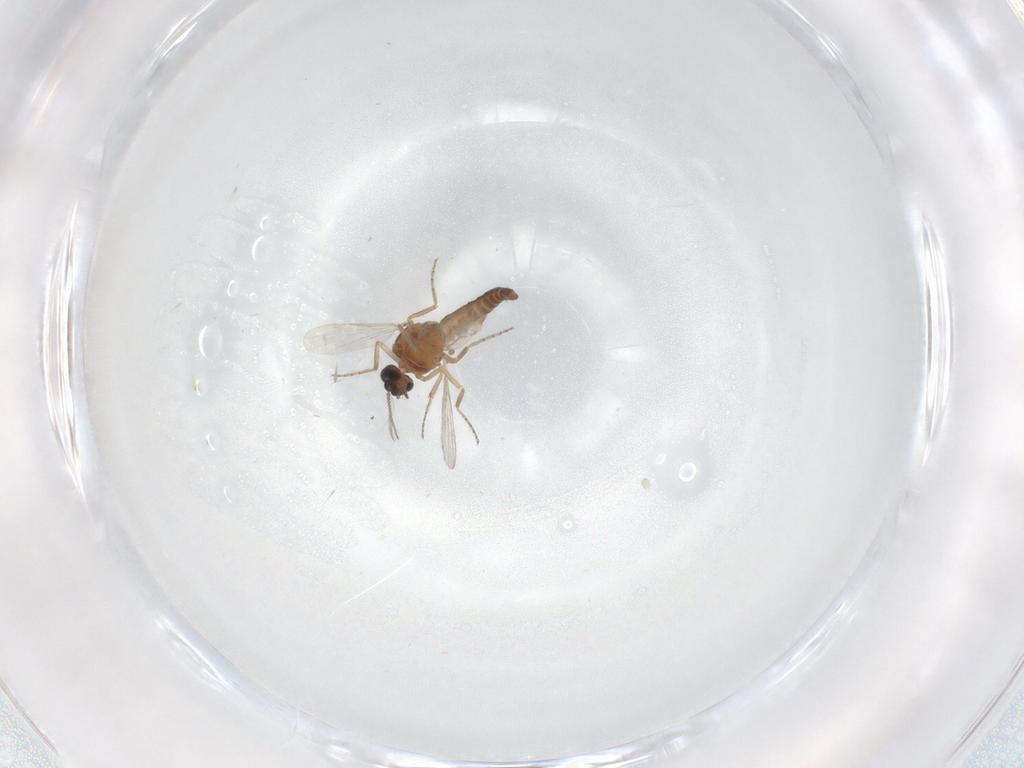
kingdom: Animalia
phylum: Arthropoda
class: Insecta
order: Diptera
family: Ceratopogonidae
